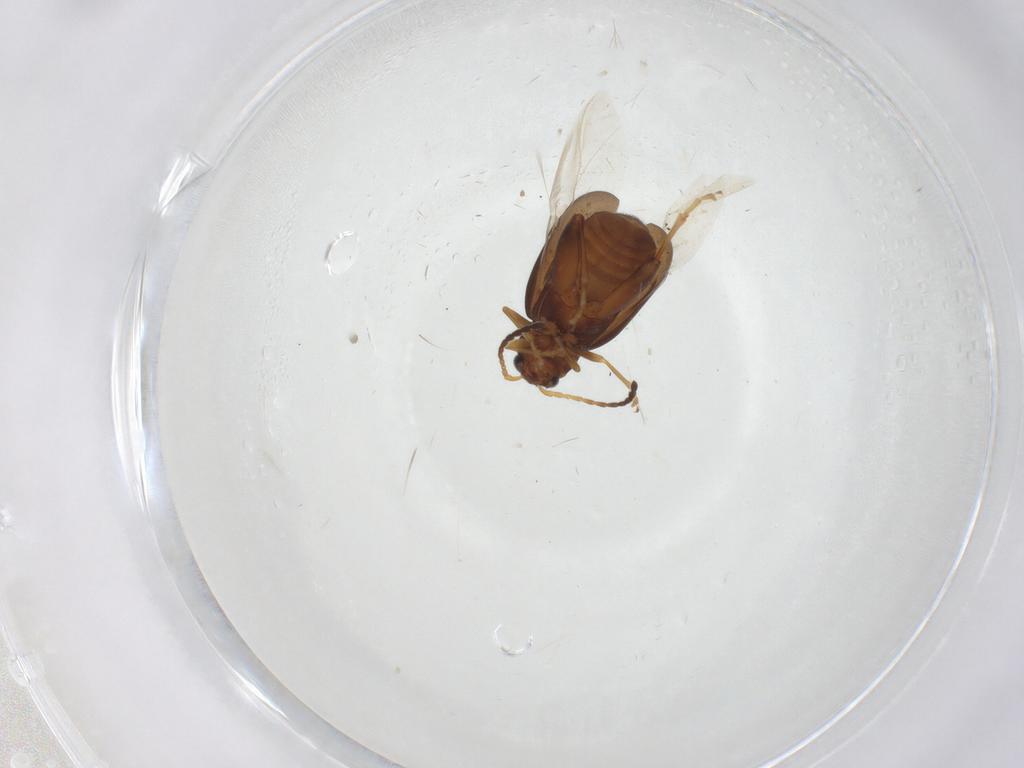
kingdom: Animalia
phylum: Arthropoda
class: Insecta
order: Coleoptera
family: Chrysomelidae
